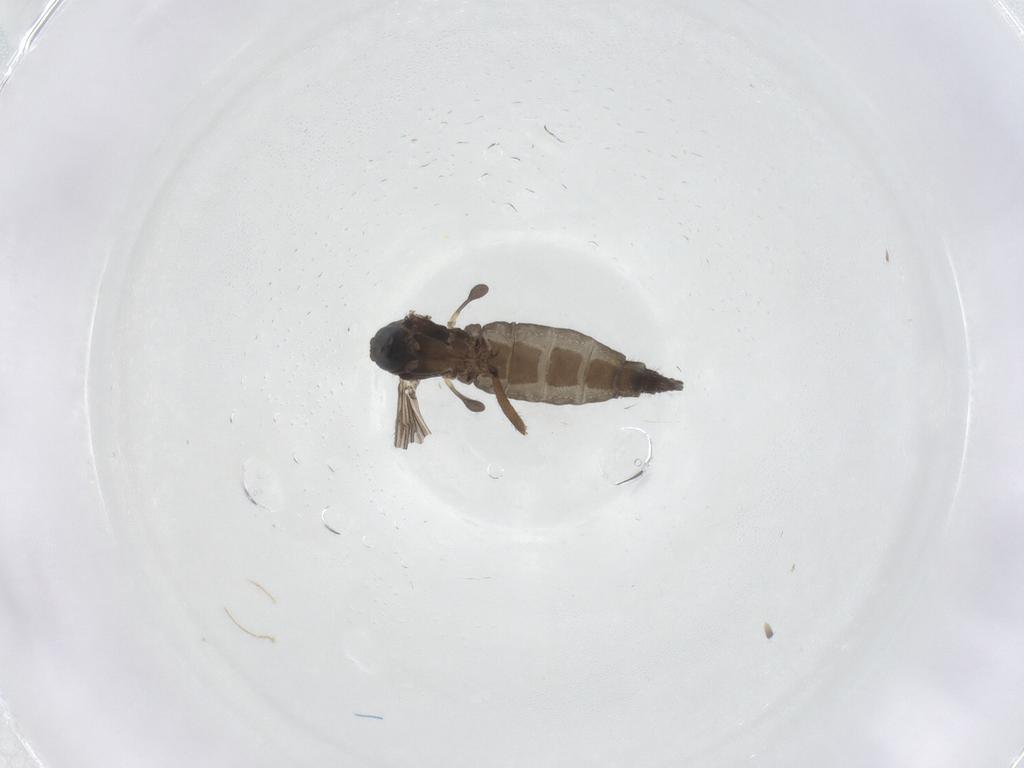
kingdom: Animalia
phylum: Arthropoda
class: Insecta
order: Diptera
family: Sciaridae
